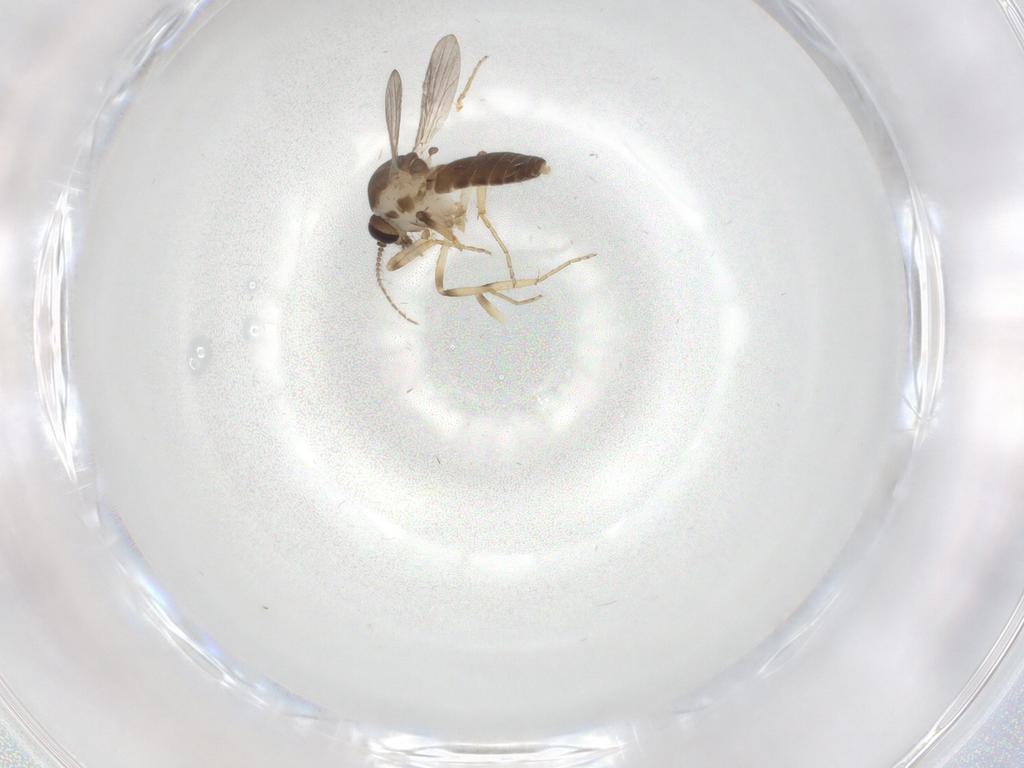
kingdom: Animalia
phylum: Arthropoda
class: Insecta
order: Diptera
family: Ceratopogonidae
